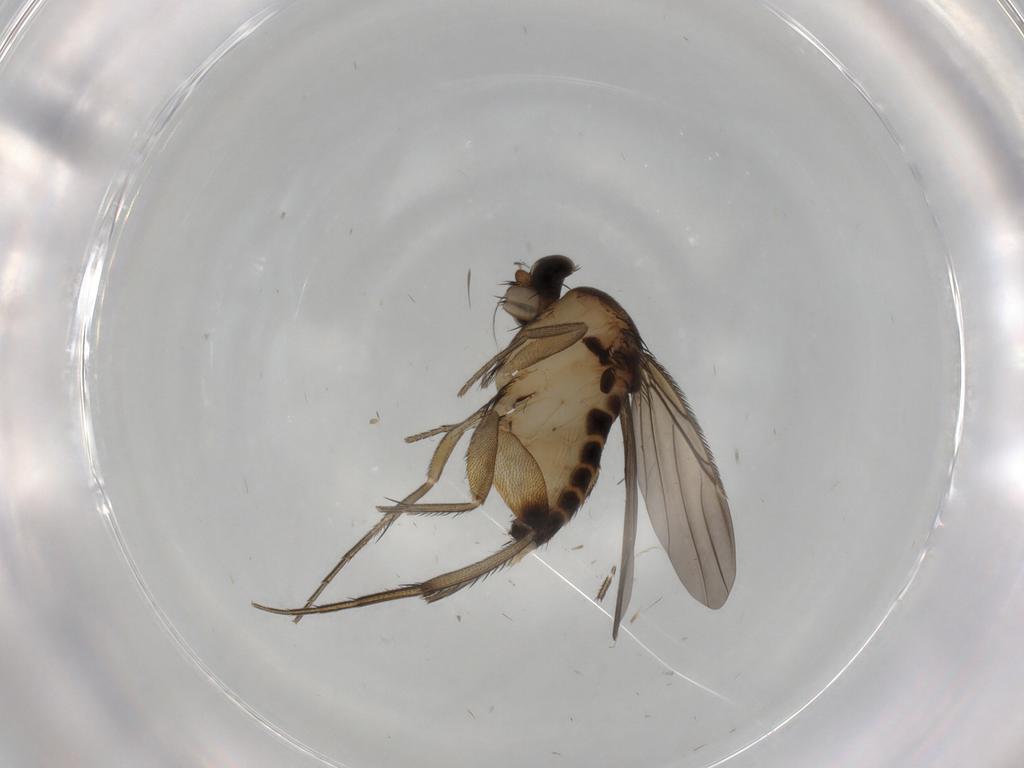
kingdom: Animalia
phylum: Arthropoda
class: Insecta
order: Diptera
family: Phoridae
